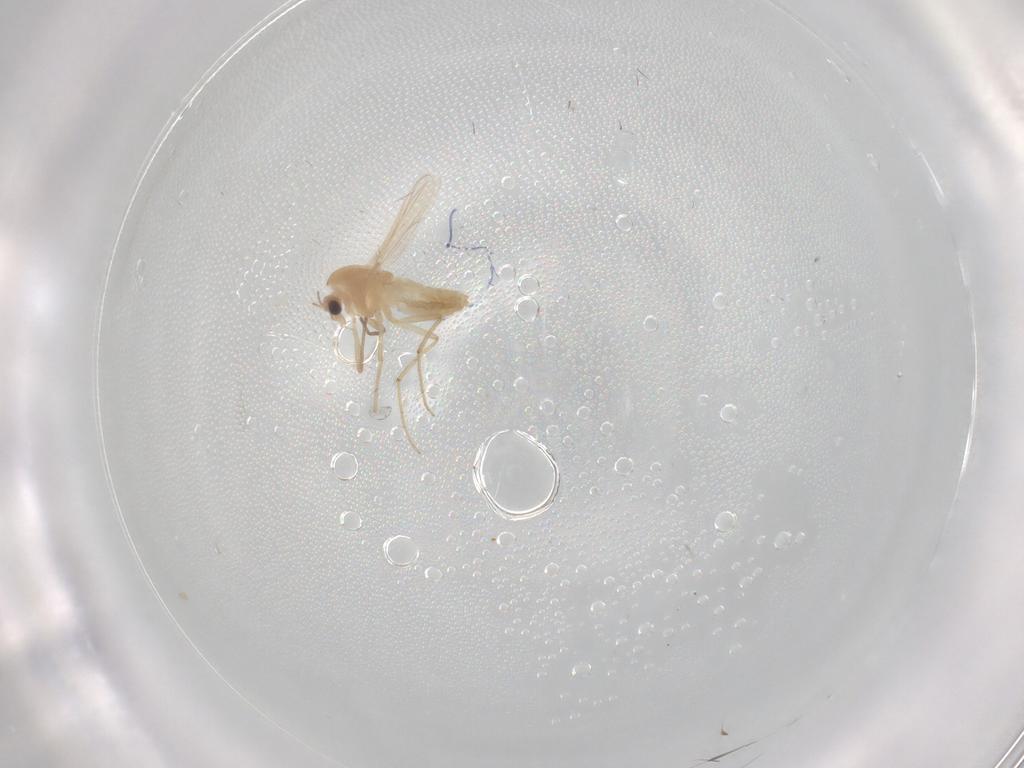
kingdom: Animalia
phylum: Arthropoda
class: Insecta
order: Diptera
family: Chironomidae
